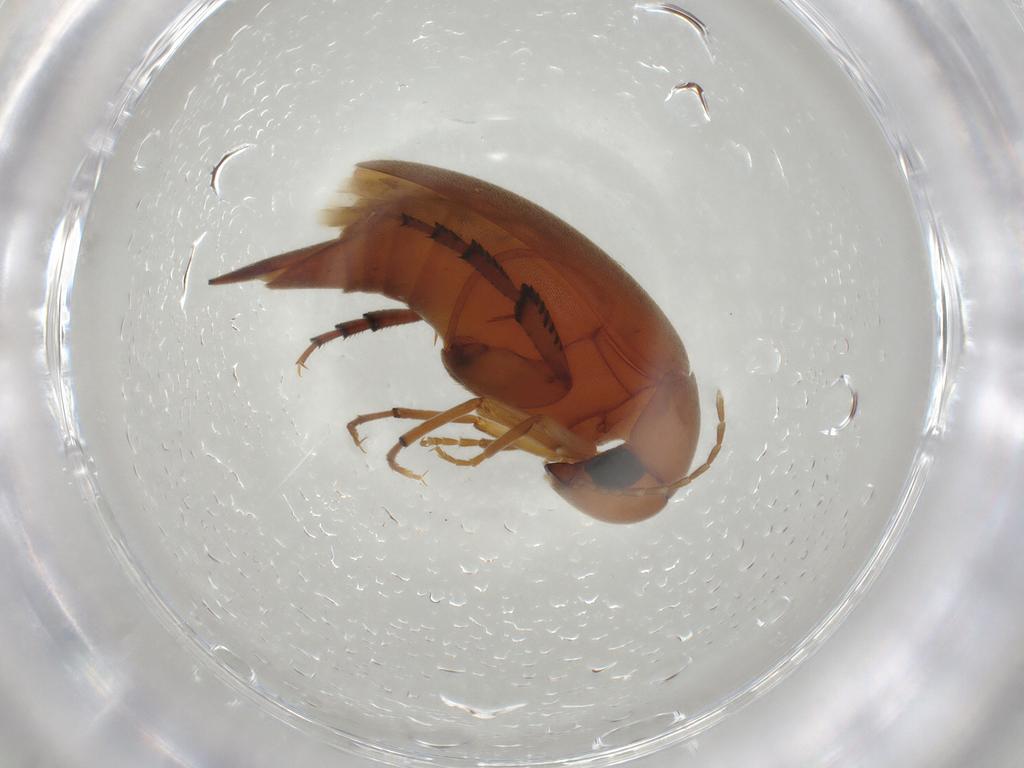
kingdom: Animalia
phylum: Arthropoda
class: Insecta
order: Coleoptera
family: Mordellidae
